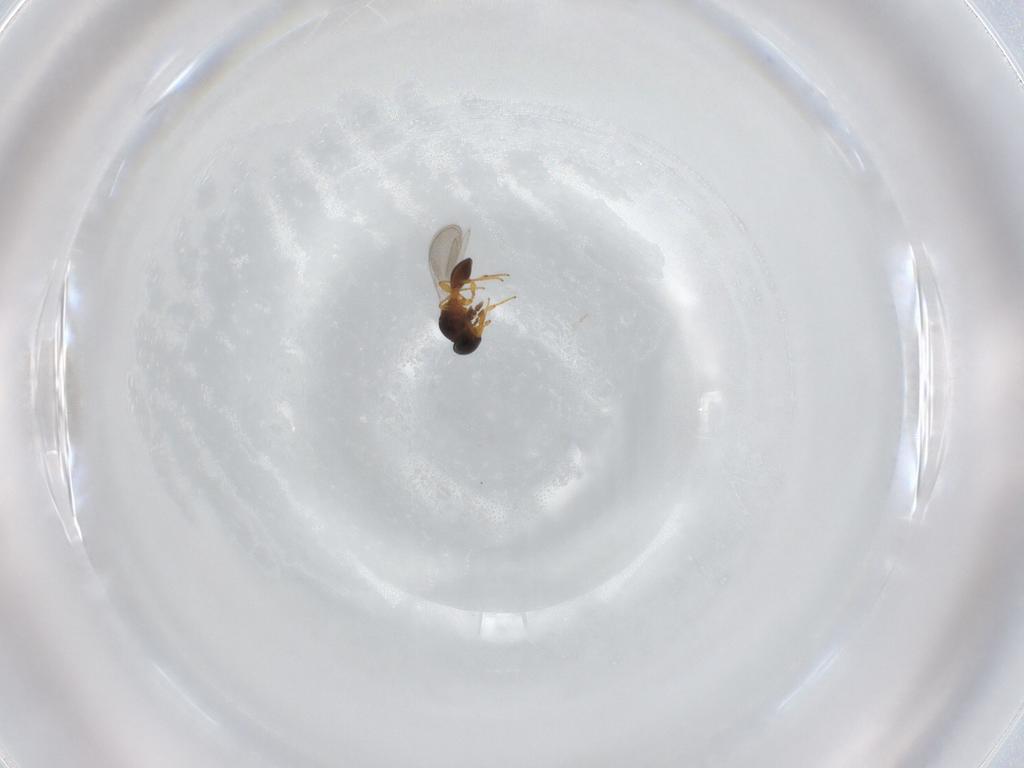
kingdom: Animalia
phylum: Arthropoda
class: Insecta
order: Hymenoptera
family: Platygastridae
